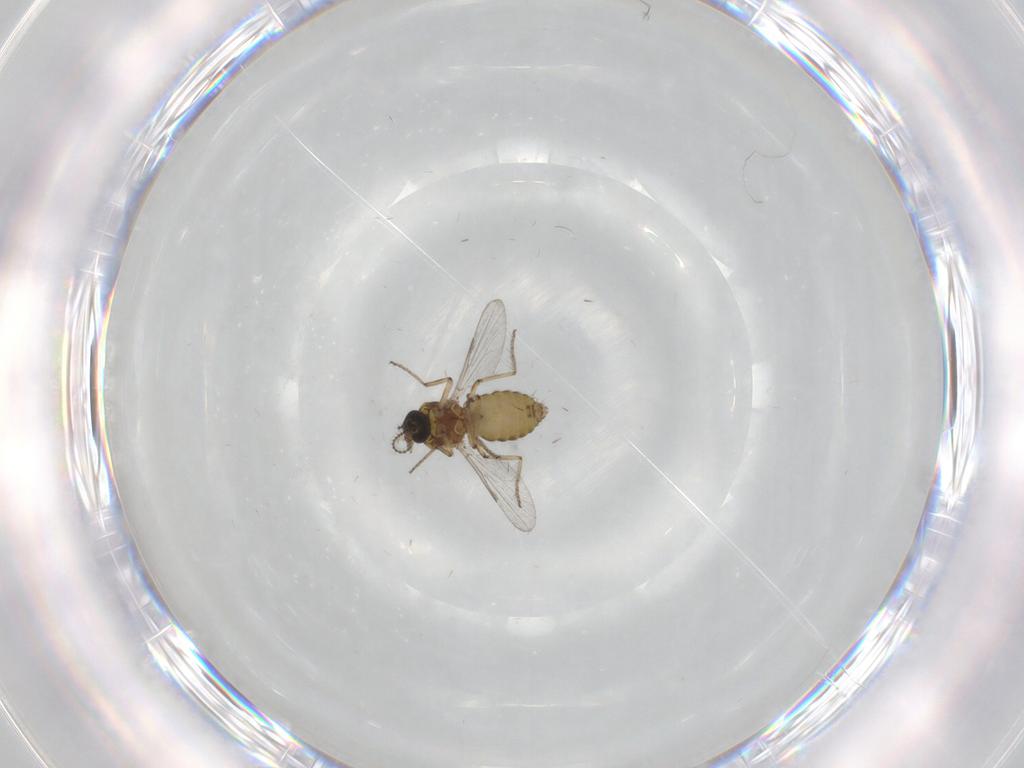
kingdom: Animalia
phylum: Arthropoda
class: Insecta
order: Diptera
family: Ceratopogonidae
